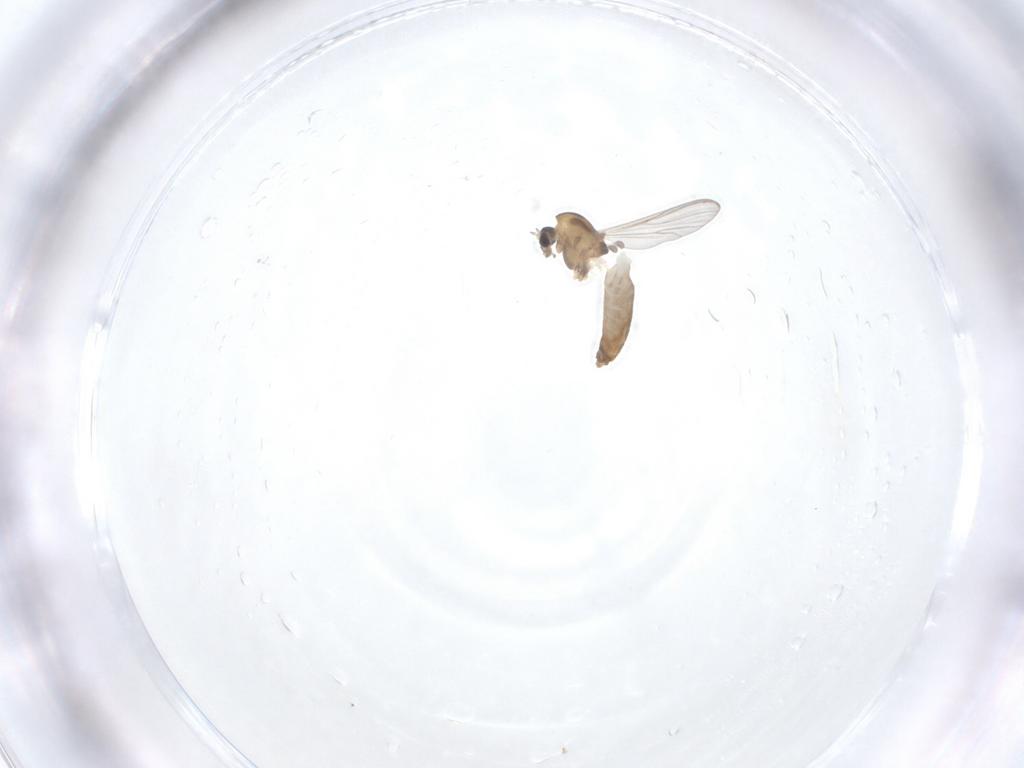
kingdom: Animalia
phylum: Arthropoda
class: Insecta
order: Diptera
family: Chironomidae
